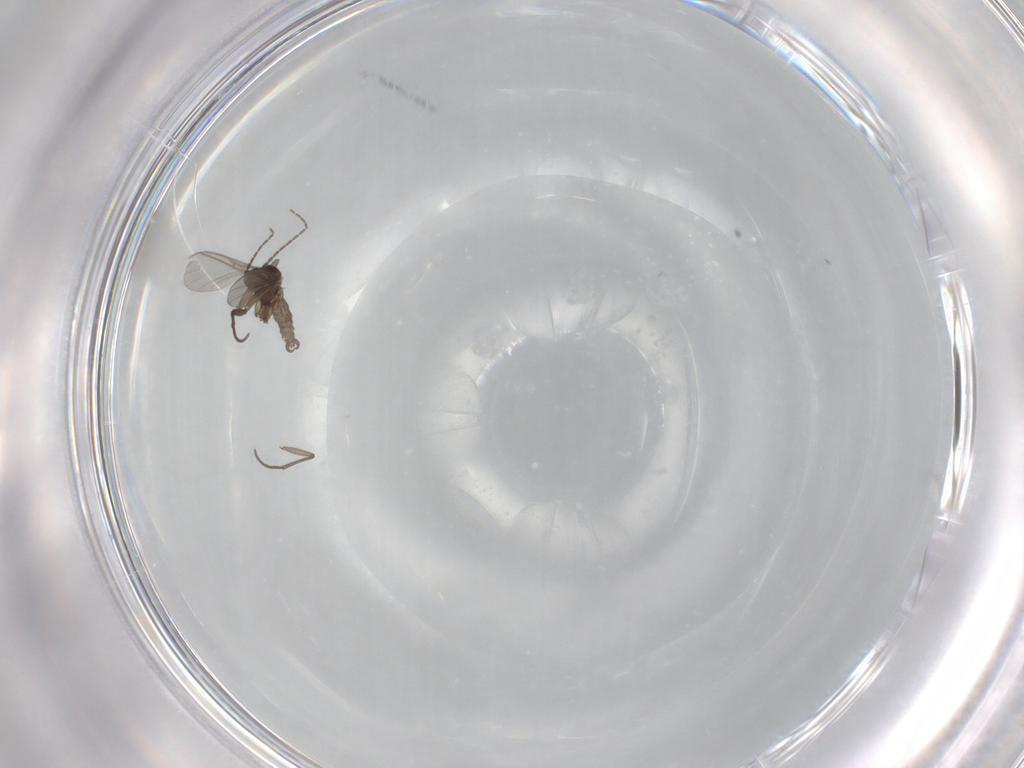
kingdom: Animalia
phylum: Arthropoda
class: Insecta
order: Diptera
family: Sciaridae
